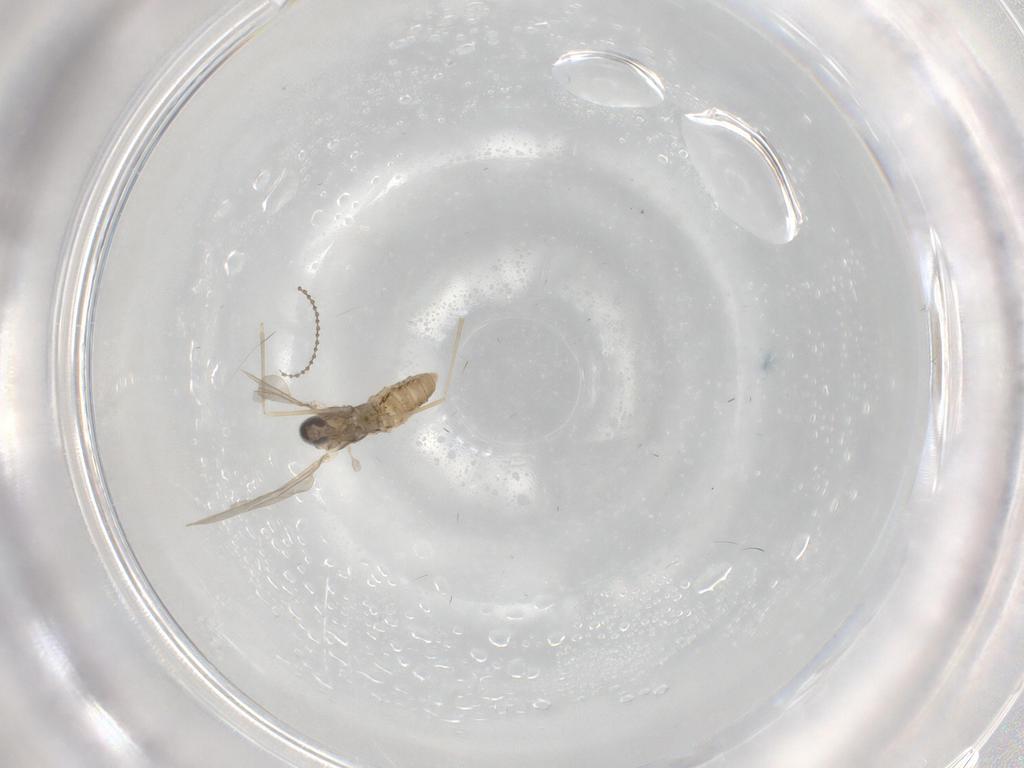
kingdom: Animalia
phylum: Arthropoda
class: Insecta
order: Diptera
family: Cecidomyiidae
